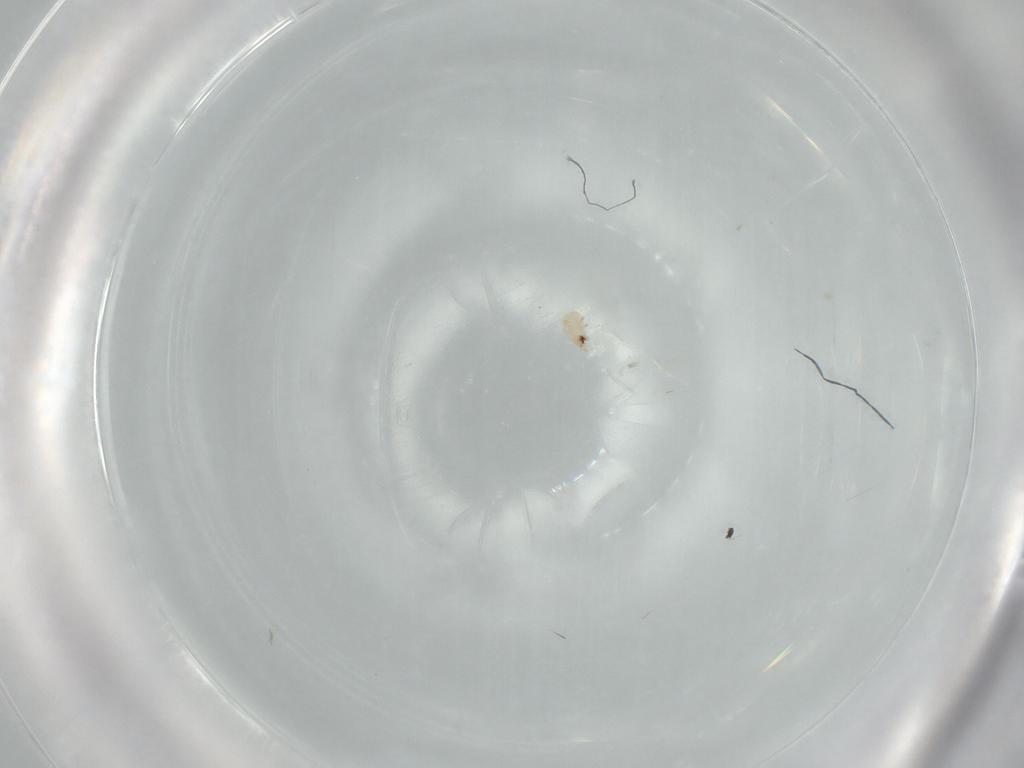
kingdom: Animalia
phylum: Arthropoda
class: Arachnida
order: Mesostigmata
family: Digamasellidae
